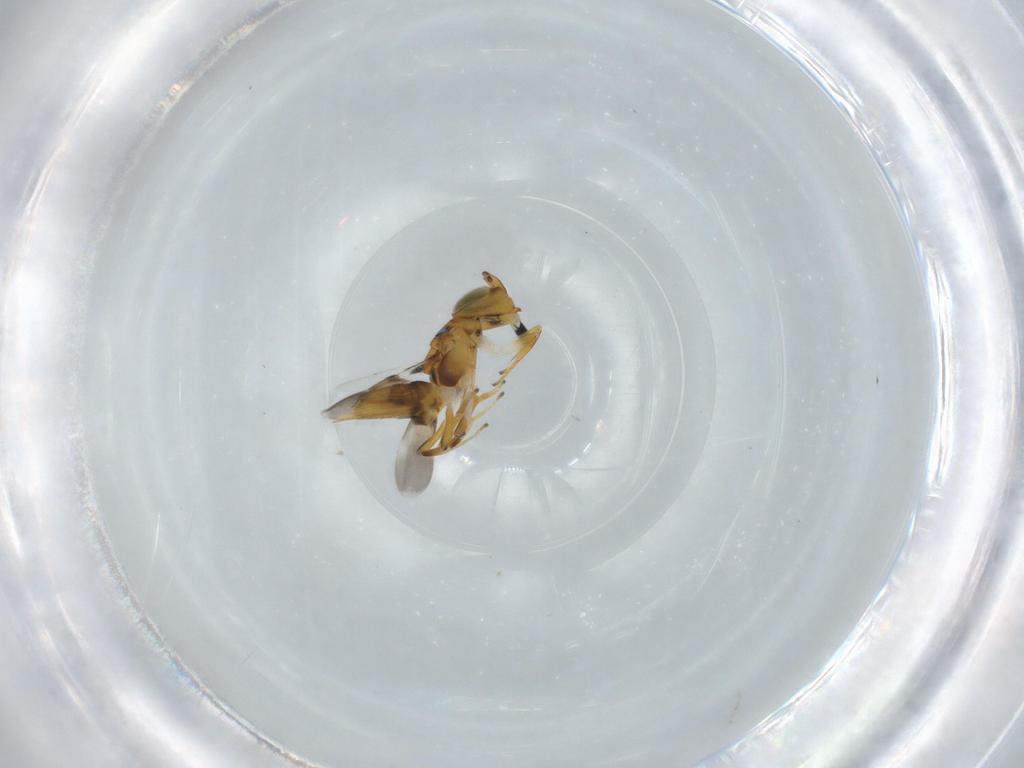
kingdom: Animalia
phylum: Arthropoda
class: Insecta
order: Hymenoptera
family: Encyrtidae
